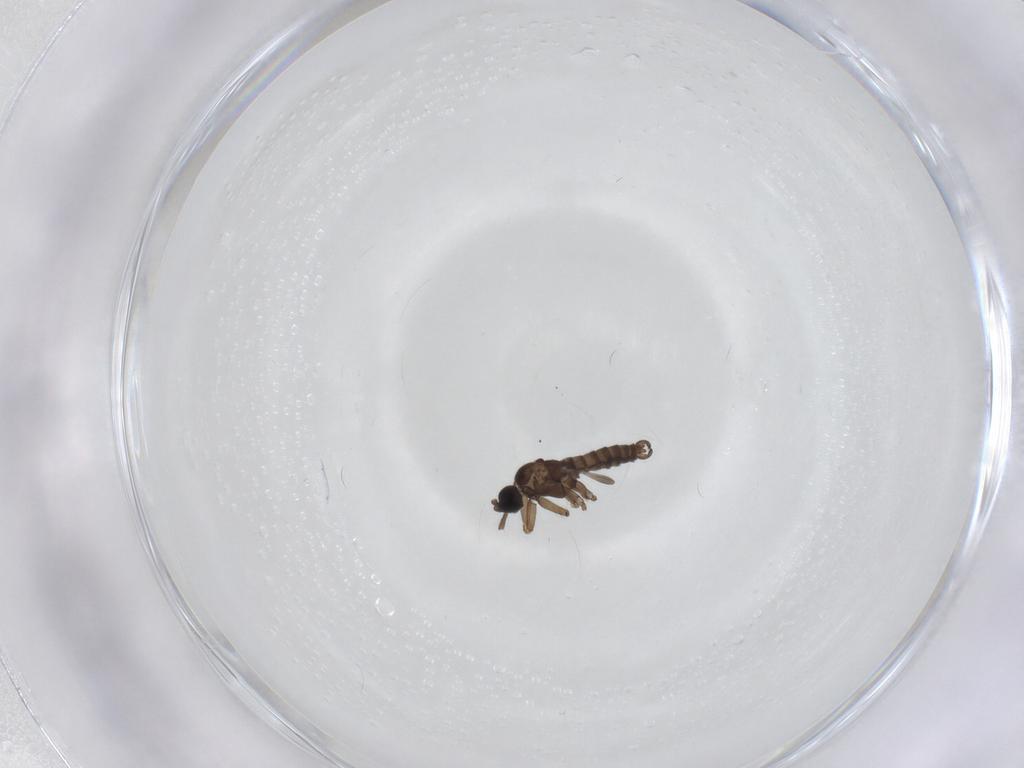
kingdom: Animalia
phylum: Arthropoda
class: Insecta
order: Diptera
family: Sciaridae
